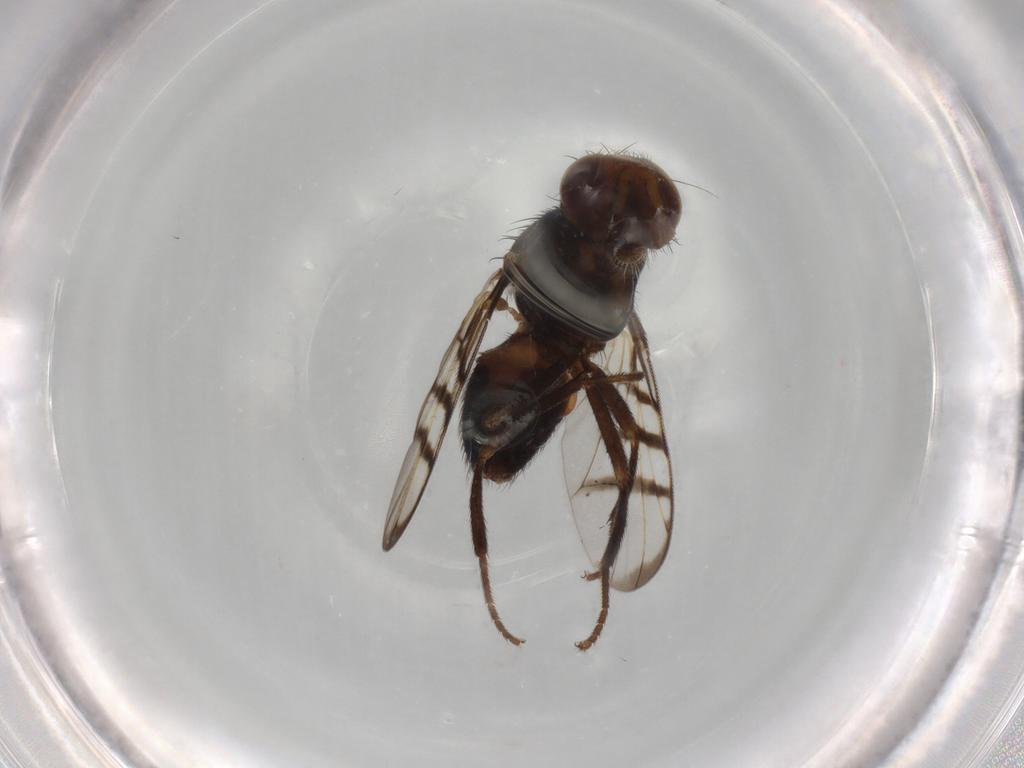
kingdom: Animalia
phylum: Arthropoda
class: Insecta
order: Diptera
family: Platystomatidae
